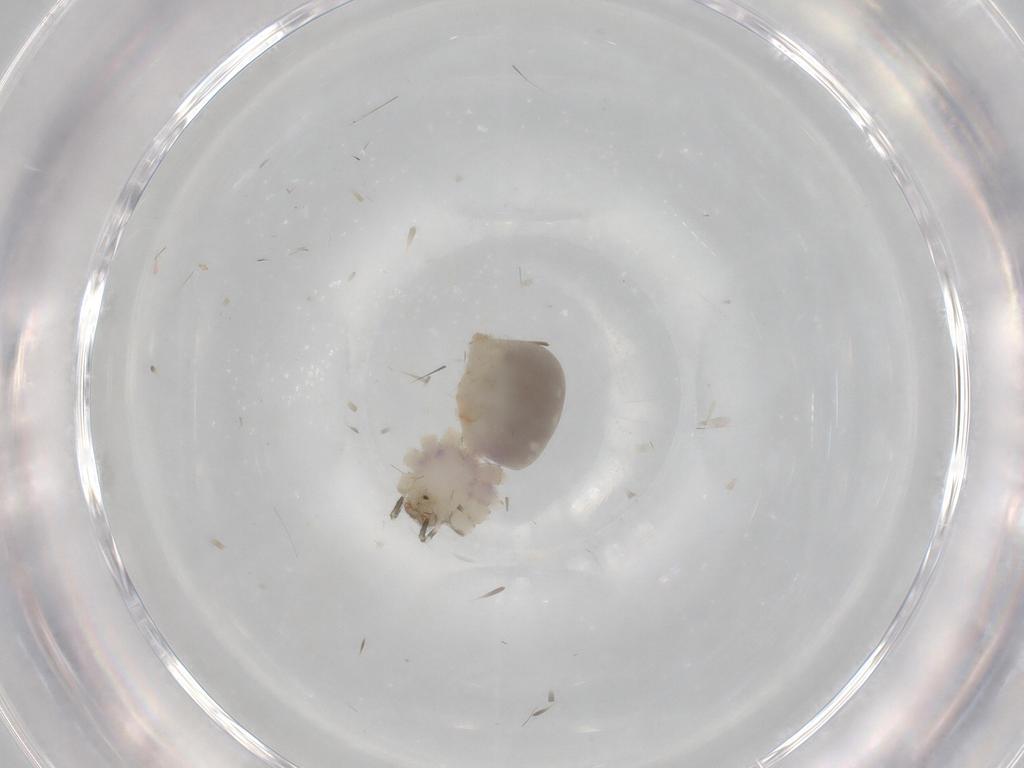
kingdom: Animalia
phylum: Arthropoda
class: Arachnida
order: Araneae
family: Pholcidae
